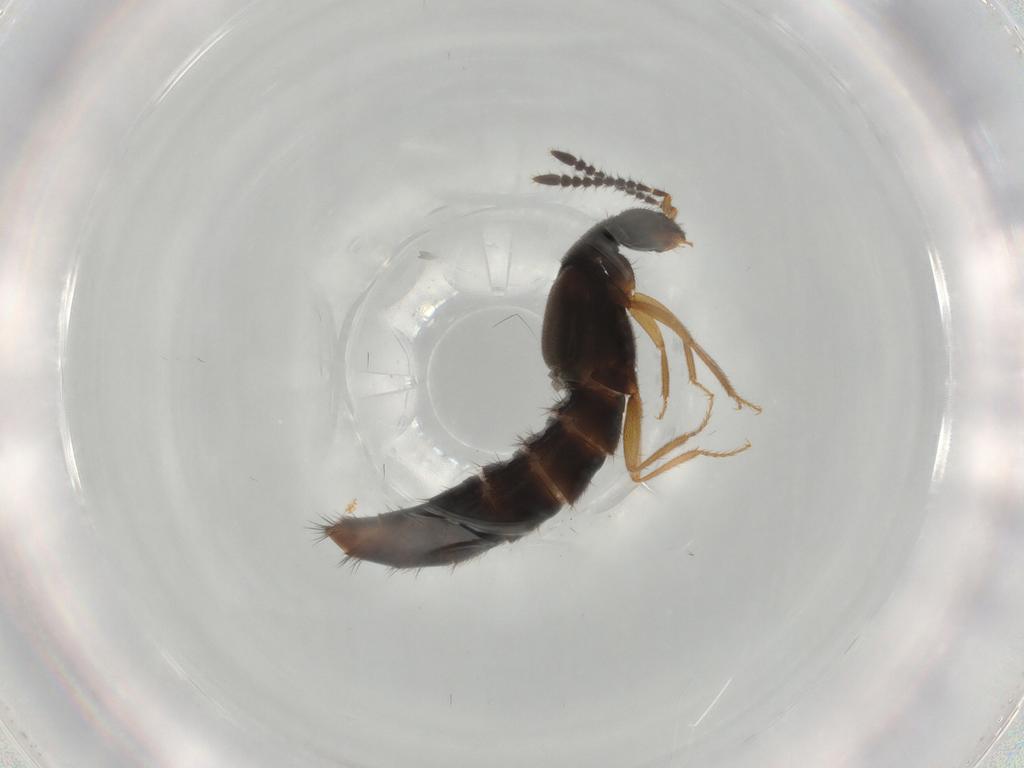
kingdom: Animalia
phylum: Arthropoda
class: Insecta
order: Coleoptera
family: Staphylinidae
